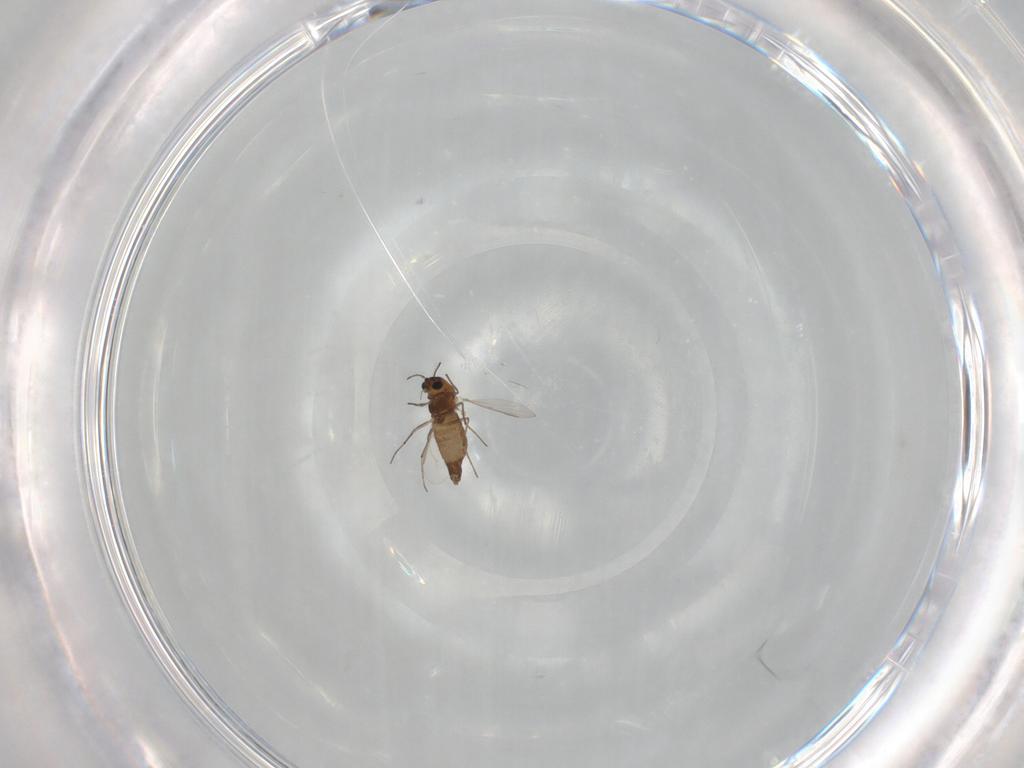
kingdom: Animalia
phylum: Arthropoda
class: Insecta
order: Diptera
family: Chironomidae
